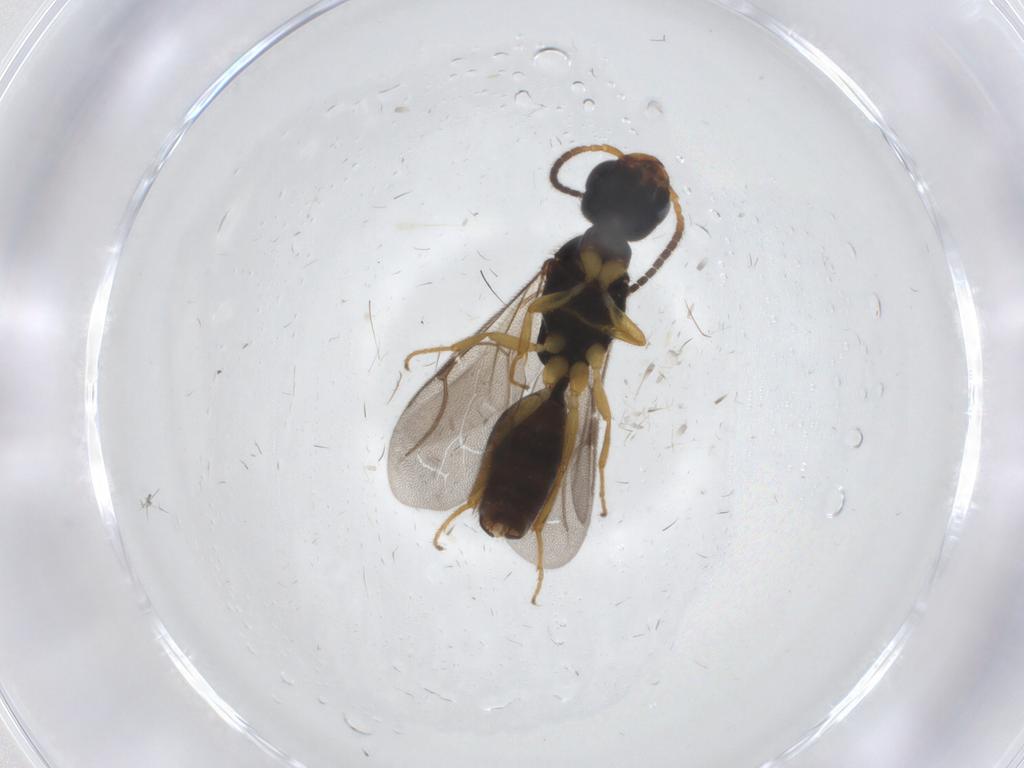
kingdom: Animalia
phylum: Arthropoda
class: Insecta
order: Hymenoptera
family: Bethylidae
